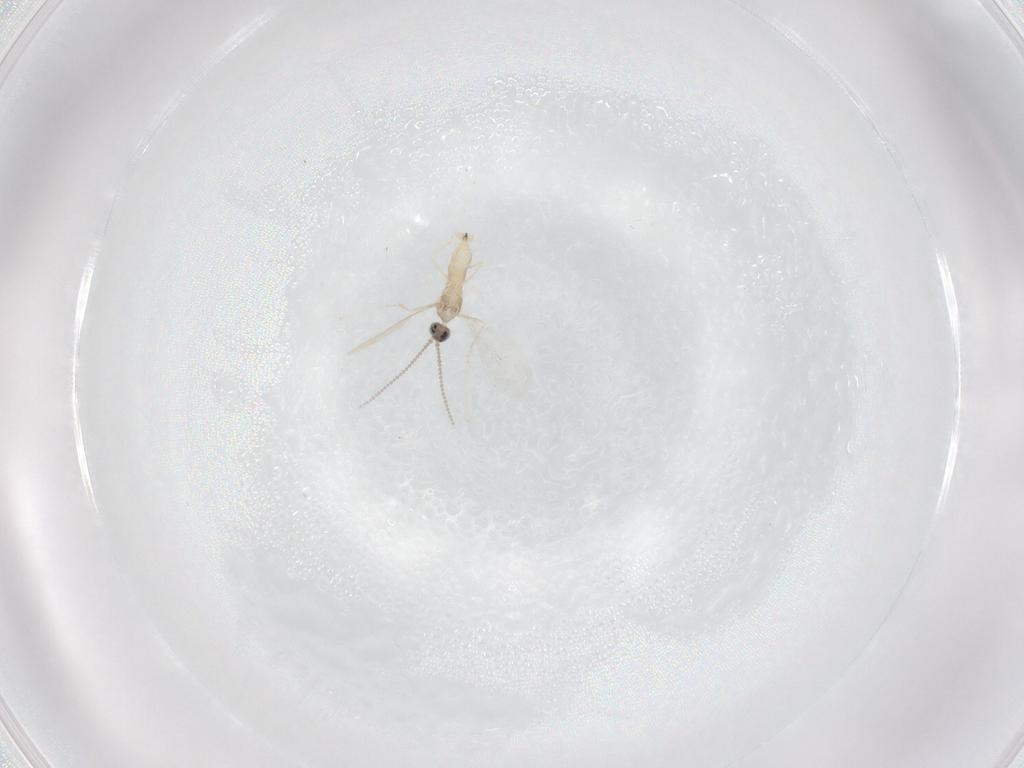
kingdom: Animalia
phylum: Arthropoda
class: Insecta
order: Diptera
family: Cecidomyiidae
